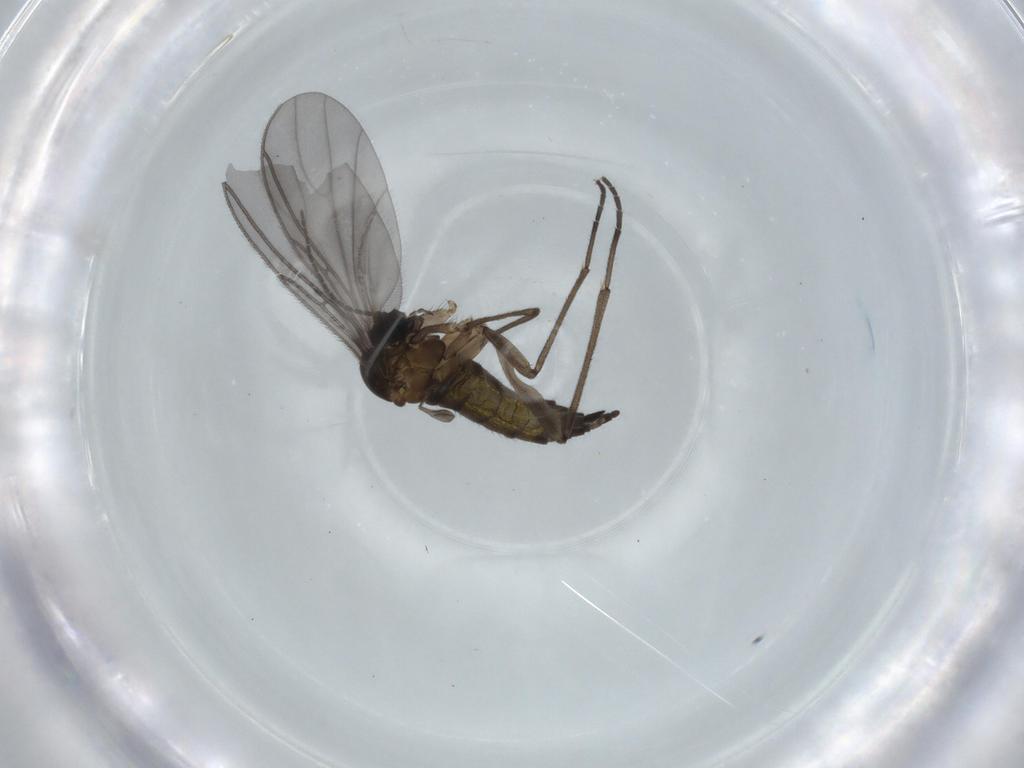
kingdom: Animalia
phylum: Arthropoda
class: Insecta
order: Diptera
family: Sciaridae
